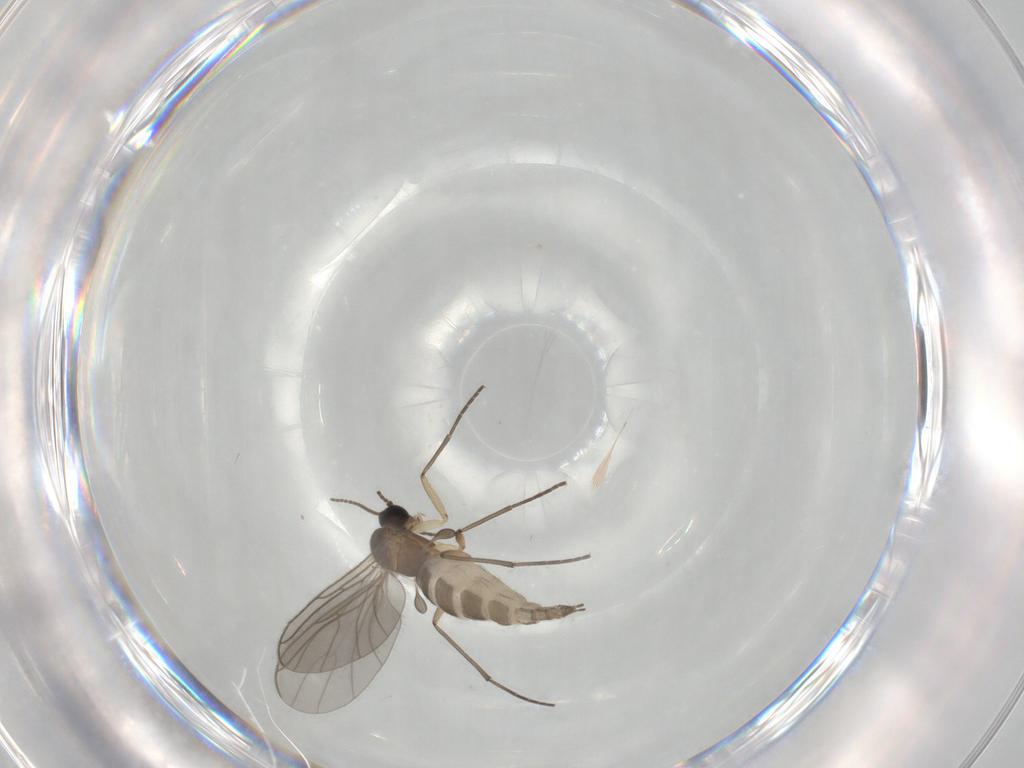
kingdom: Animalia
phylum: Arthropoda
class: Insecta
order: Diptera
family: Sciaridae
